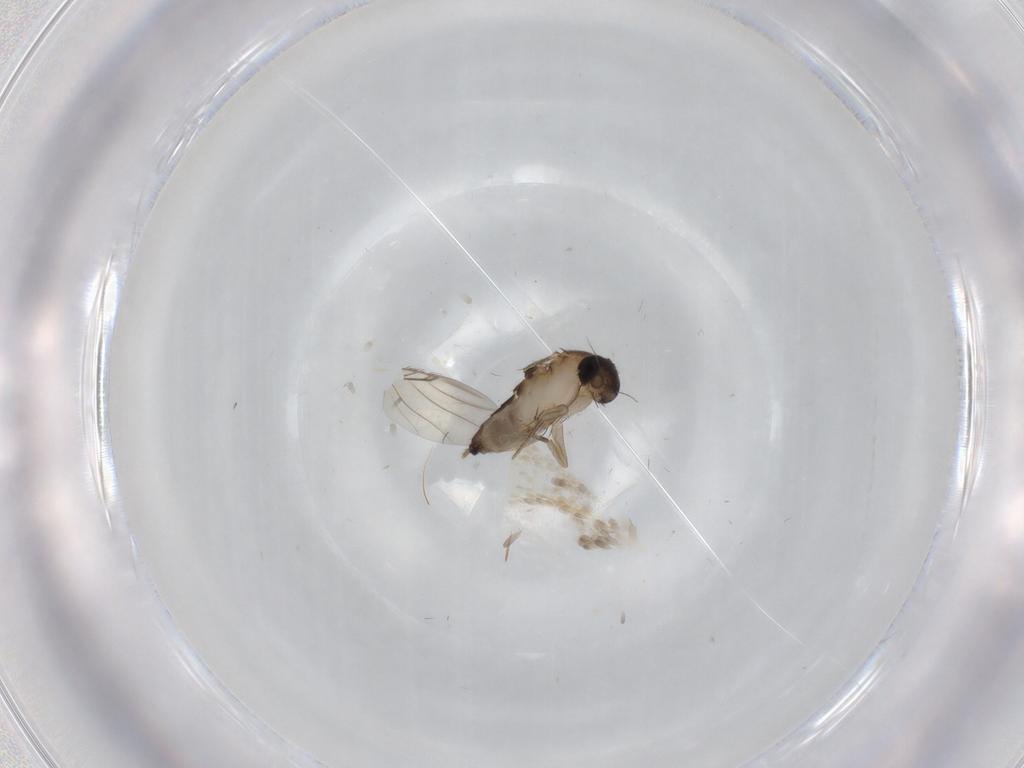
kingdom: Animalia
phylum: Arthropoda
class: Insecta
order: Diptera
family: Phoridae
